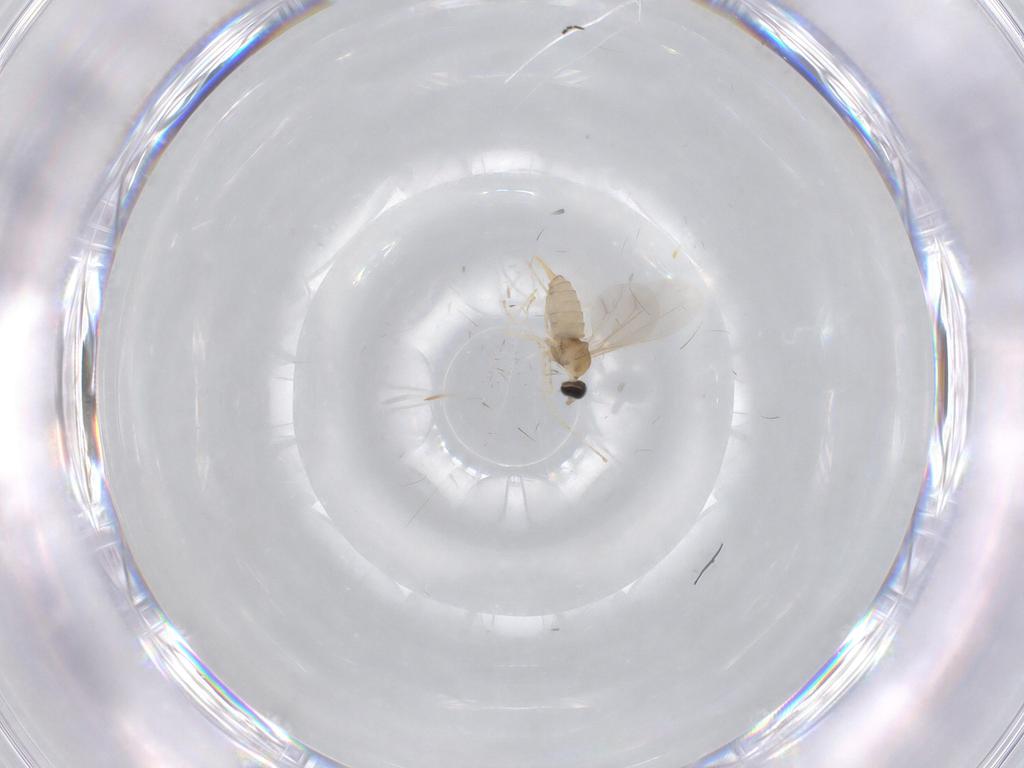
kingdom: Animalia
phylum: Arthropoda
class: Insecta
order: Diptera
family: Cecidomyiidae
